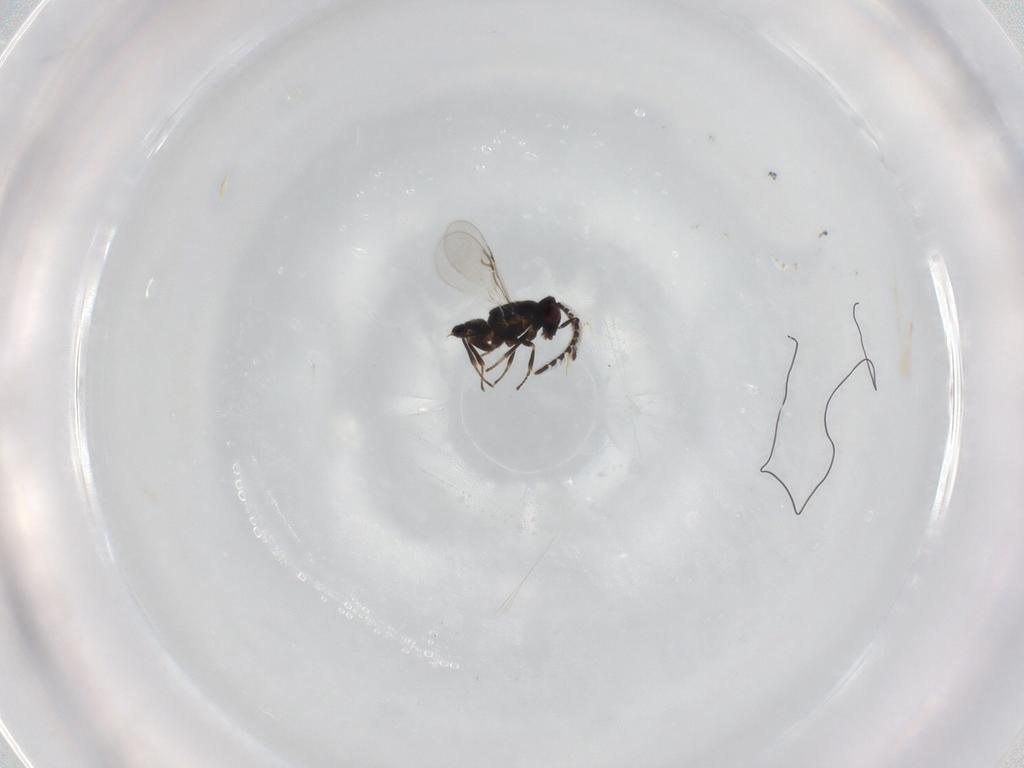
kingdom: Animalia
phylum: Arthropoda
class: Insecta
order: Hymenoptera
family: Encyrtidae
